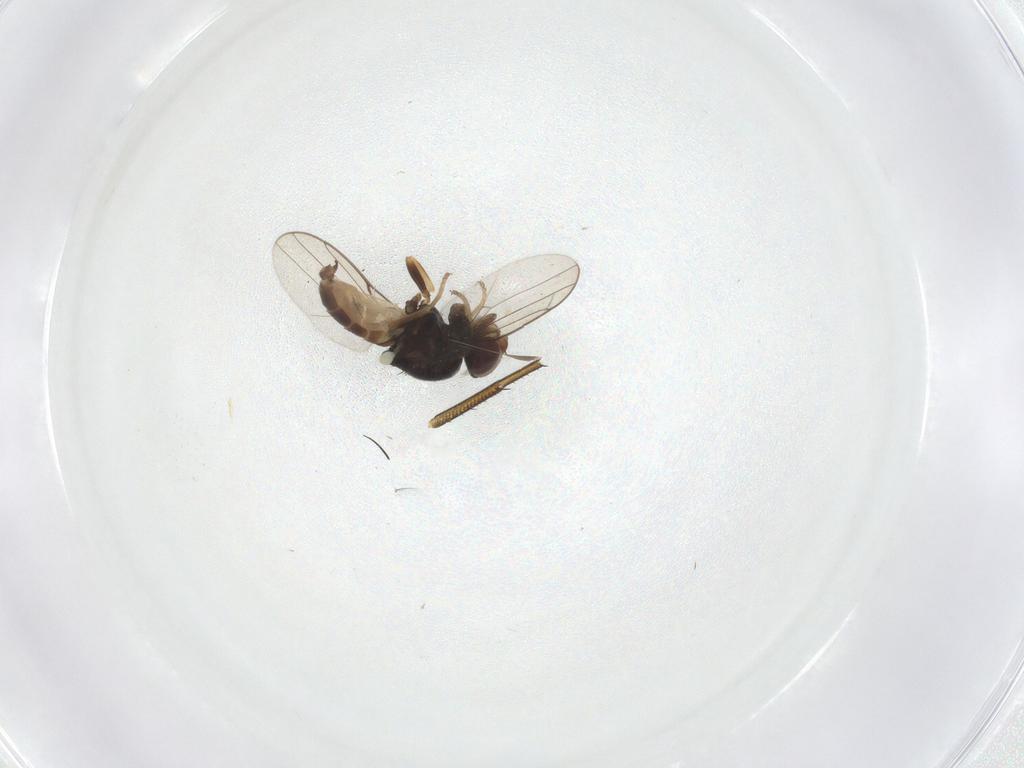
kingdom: Animalia
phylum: Arthropoda
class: Insecta
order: Diptera
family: Chloropidae
